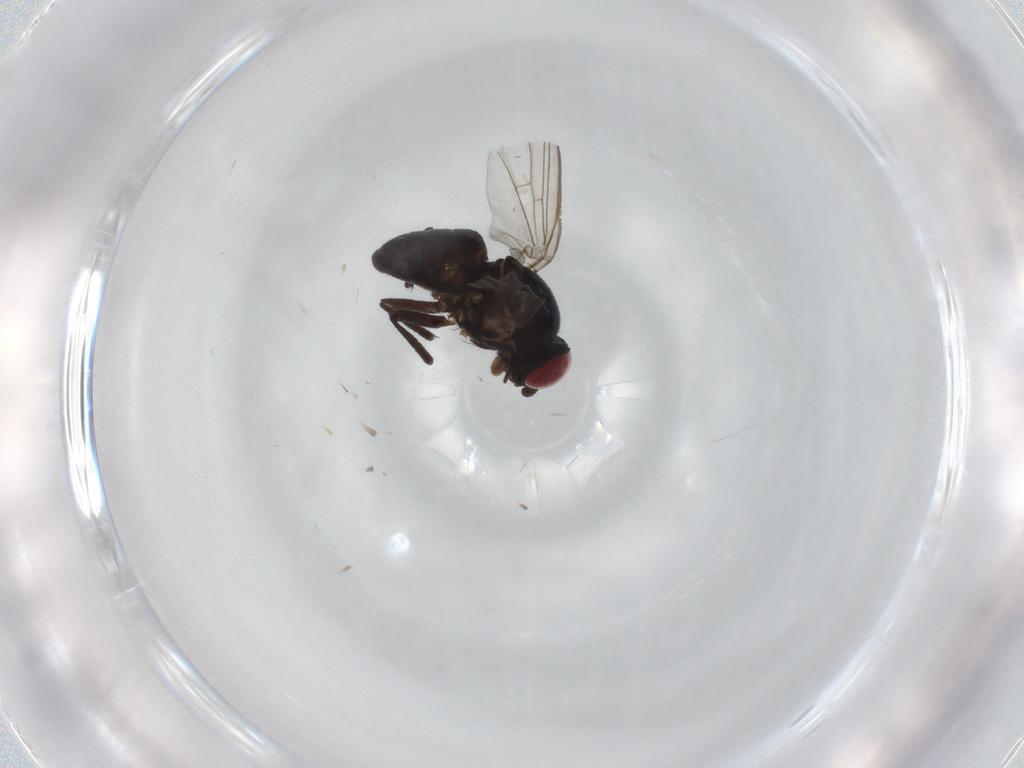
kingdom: Animalia
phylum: Arthropoda
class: Insecta
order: Diptera
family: Agromyzidae
